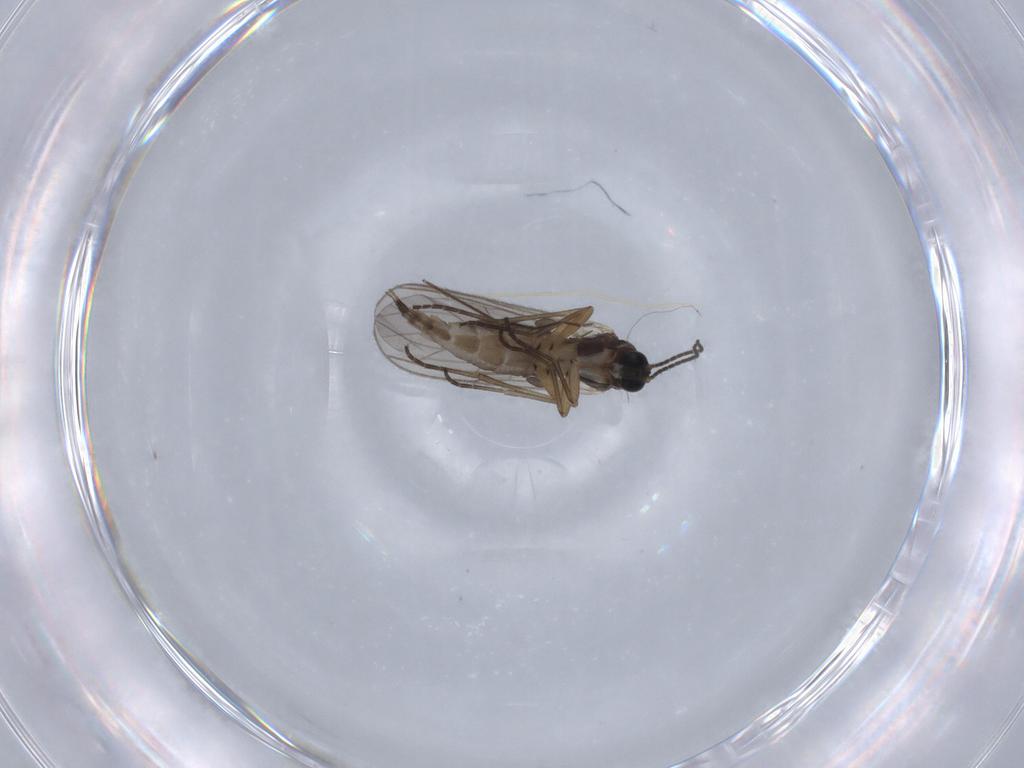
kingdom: Animalia
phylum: Arthropoda
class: Insecta
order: Diptera
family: Sciaridae
